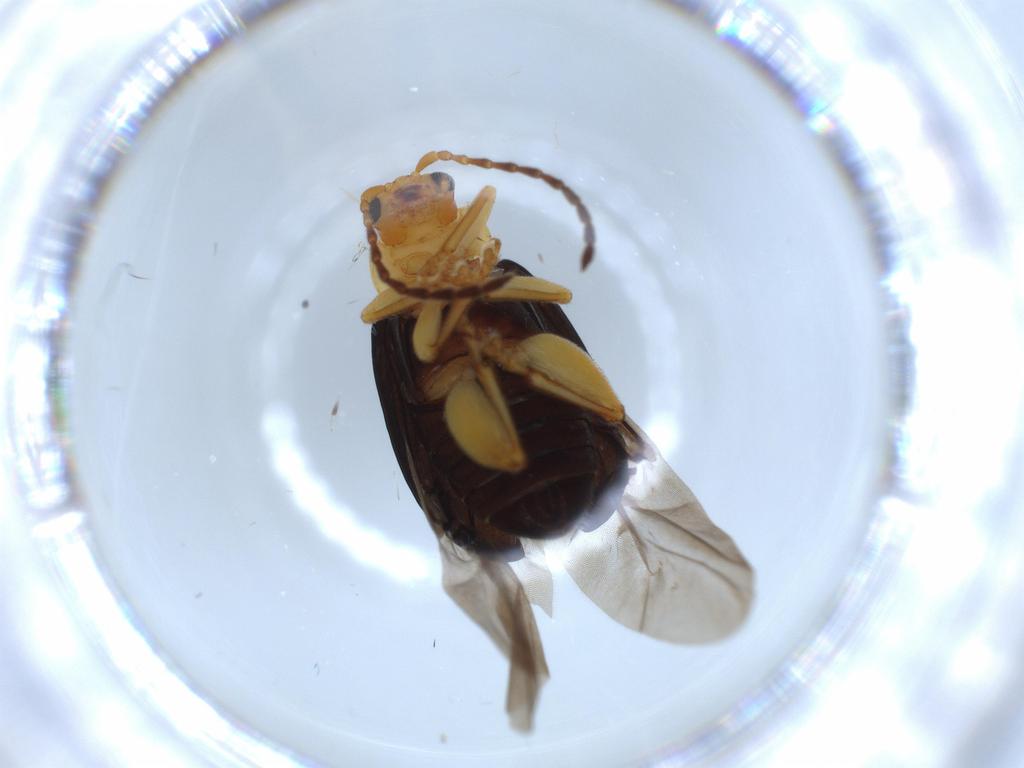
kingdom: Animalia
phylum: Arthropoda
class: Insecta
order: Coleoptera
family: Chrysomelidae
